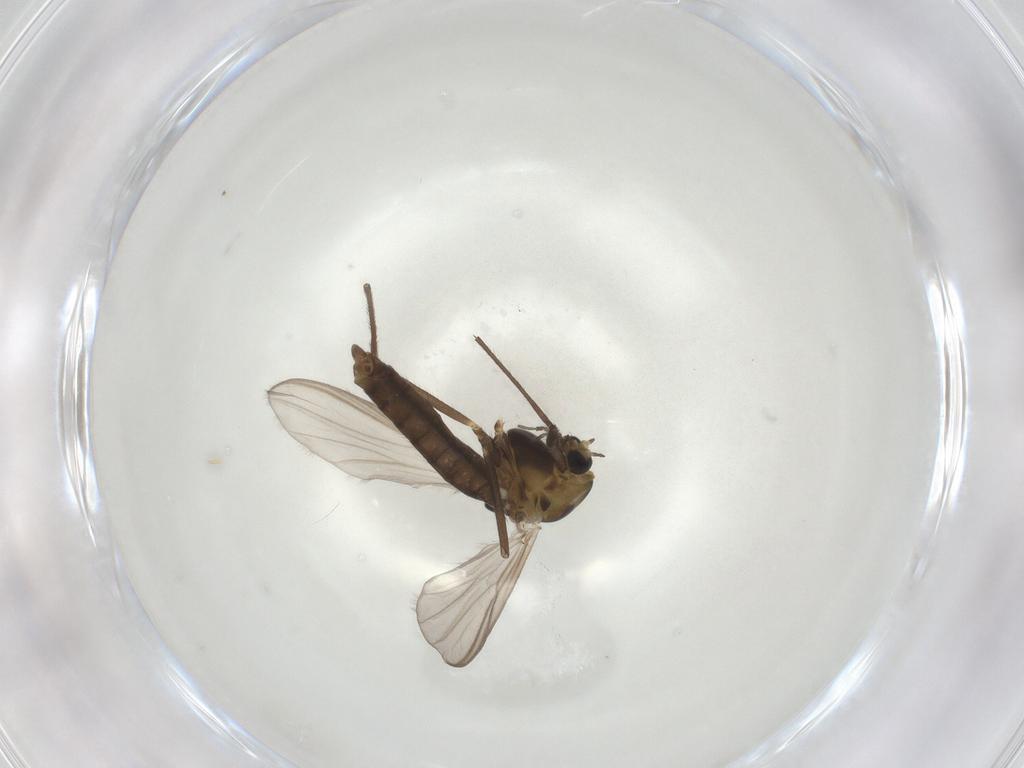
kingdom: Animalia
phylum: Arthropoda
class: Insecta
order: Diptera
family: Chironomidae
